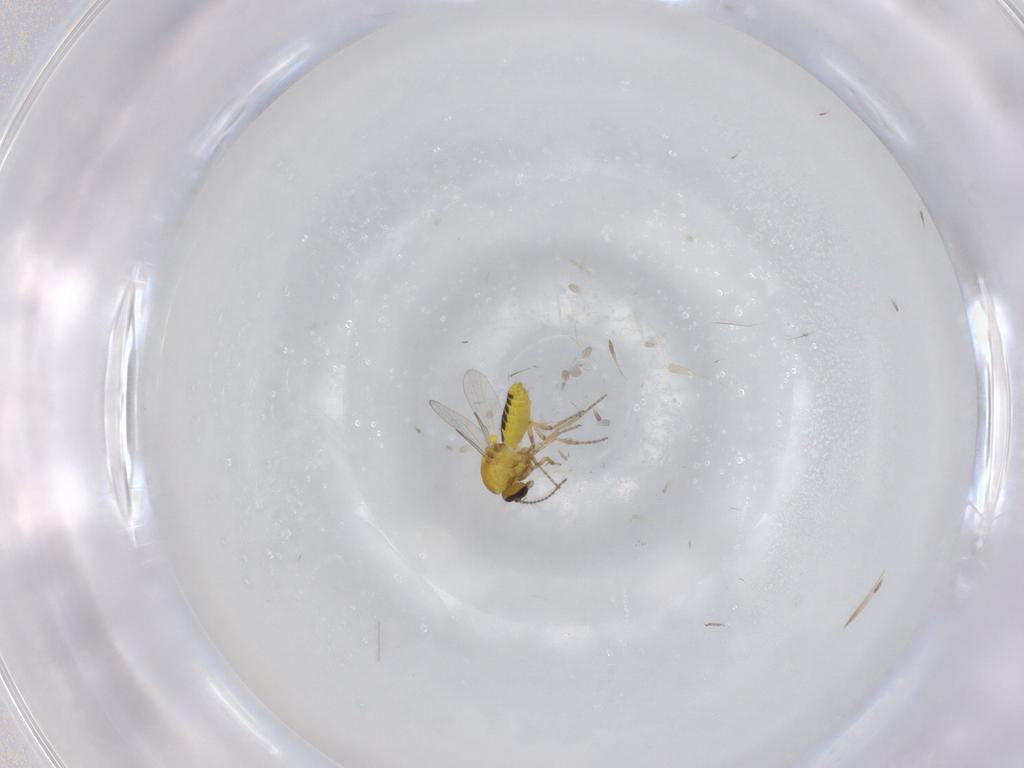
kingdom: Animalia
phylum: Arthropoda
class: Insecta
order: Diptera
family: Ceratopogonidae
